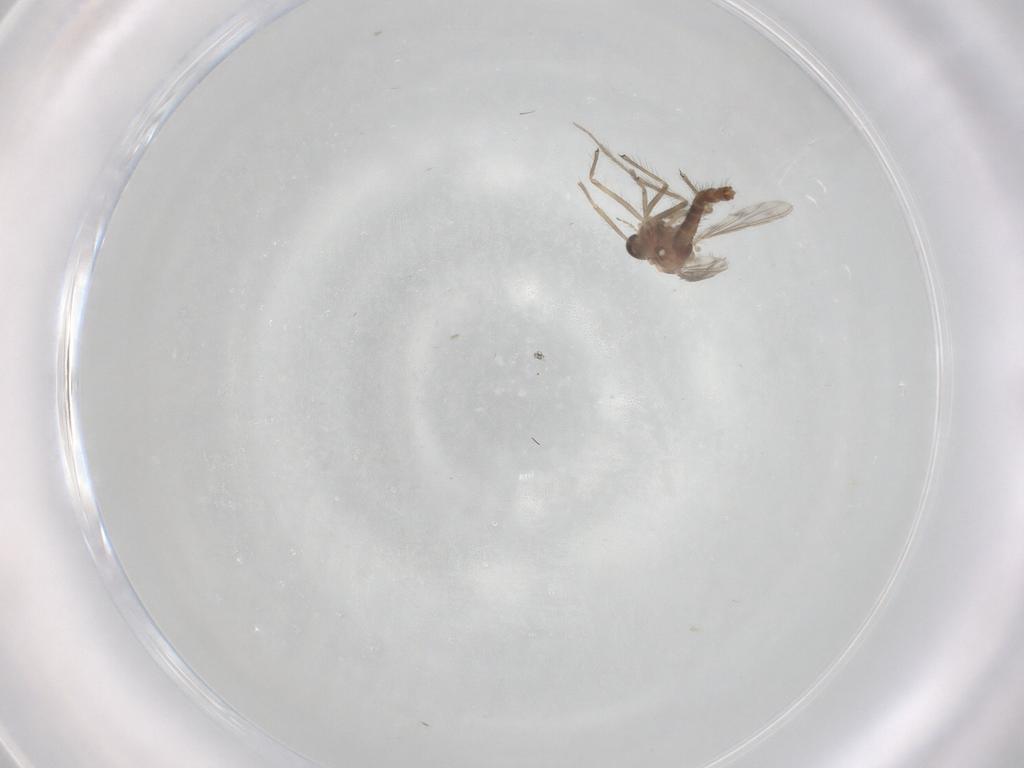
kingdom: Animalia
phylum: Arthropoda
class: Insecta
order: Diptera
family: Chironomidae
